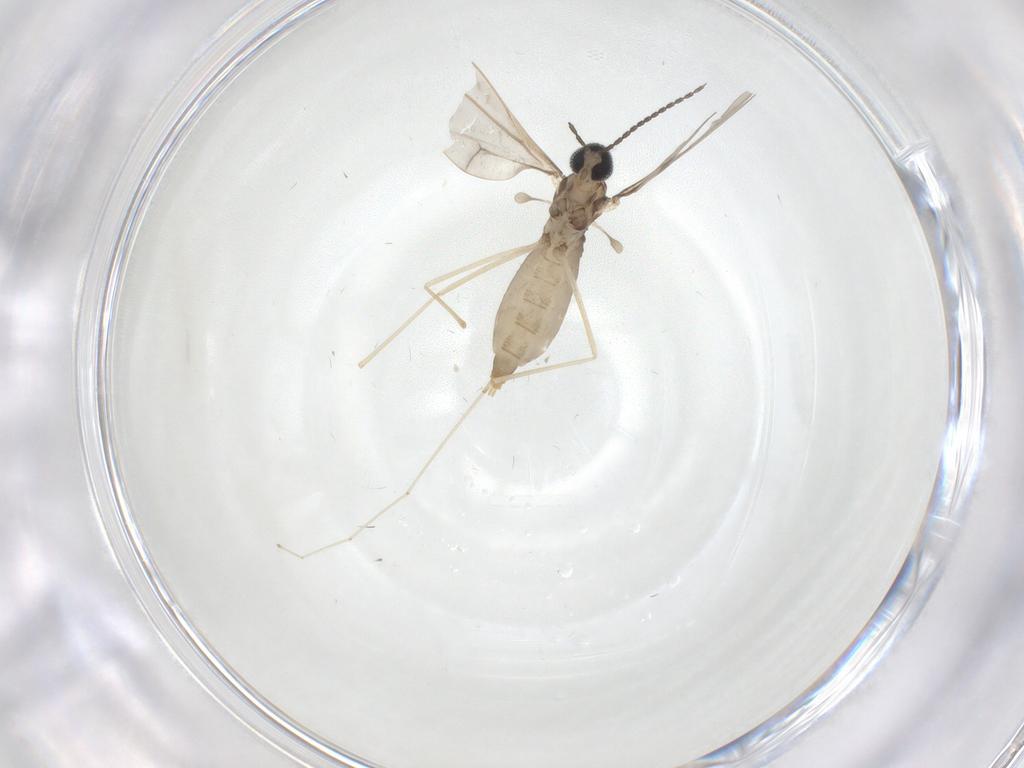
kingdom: Animalia
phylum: Arthropoda
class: Insecta
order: Diptera
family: Cecidomyiidae
